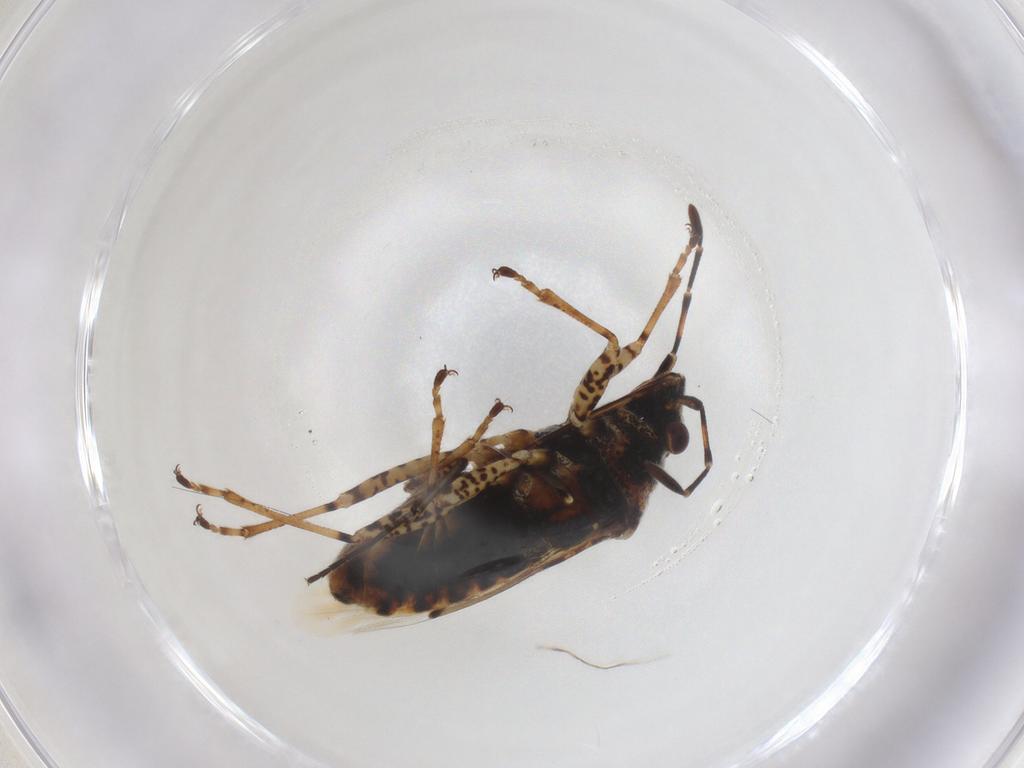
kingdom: Animalia
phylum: Arthropoda
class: Insecta
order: Hemiptera
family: Lygaeidae
